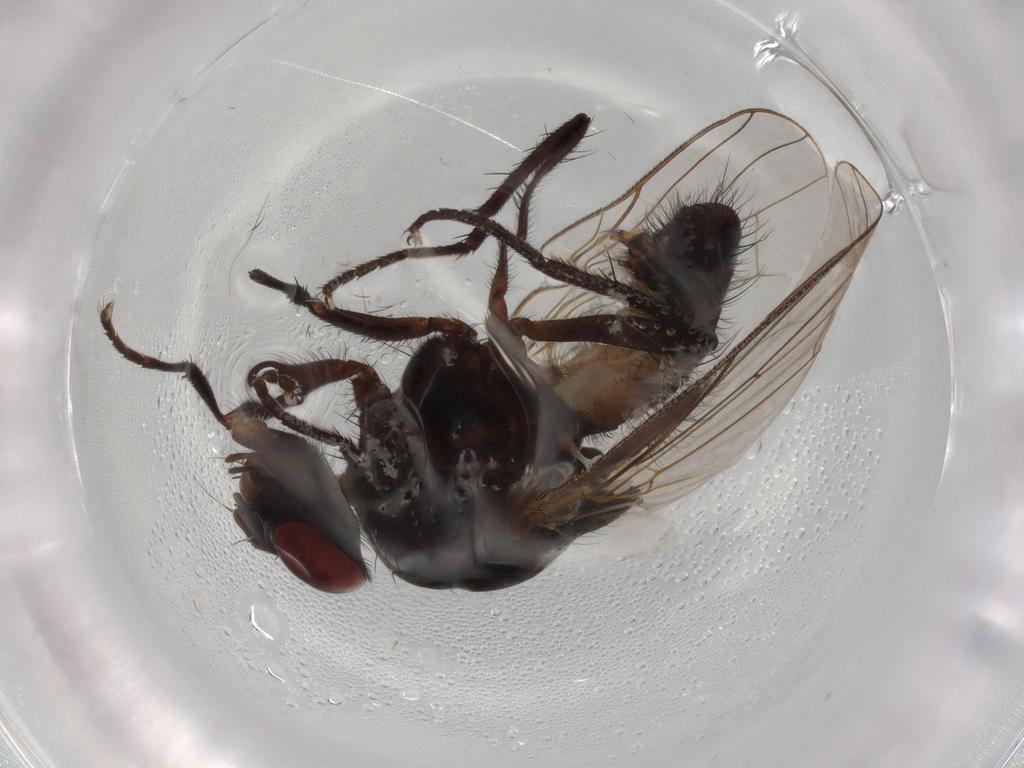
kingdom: Animalia
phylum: Arthropoda
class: Insecta
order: Diptera
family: Anthomyiidae
